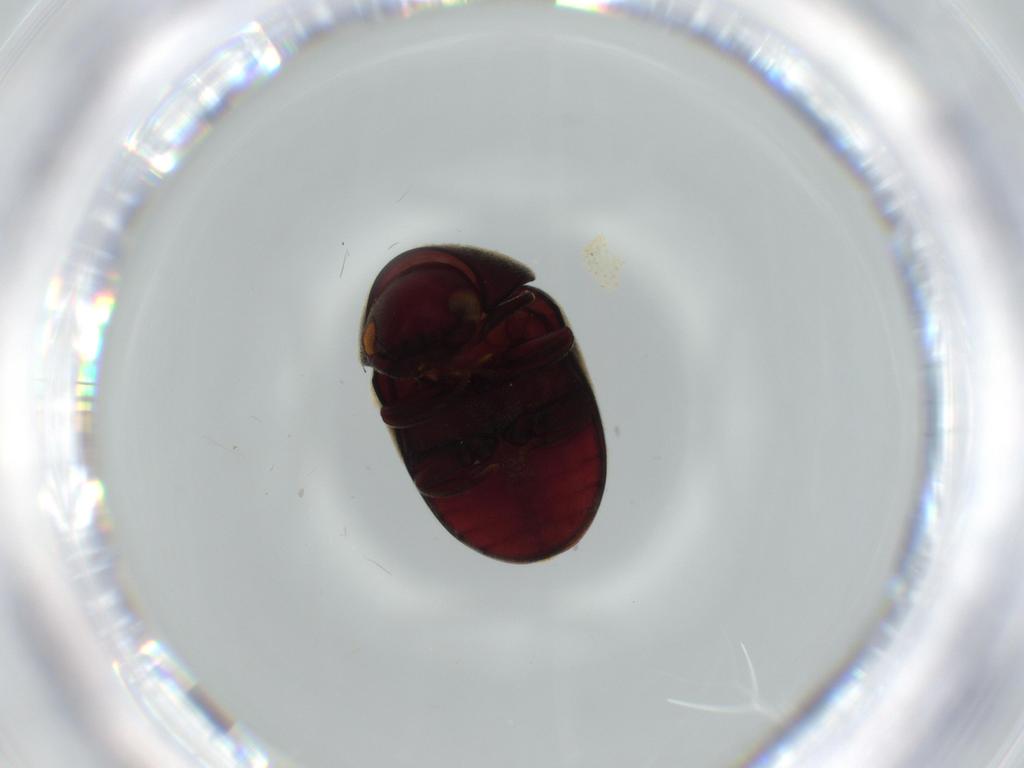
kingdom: Animalia
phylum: Arthropoda
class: Insecta
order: Coleoptera
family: Ptinidae
